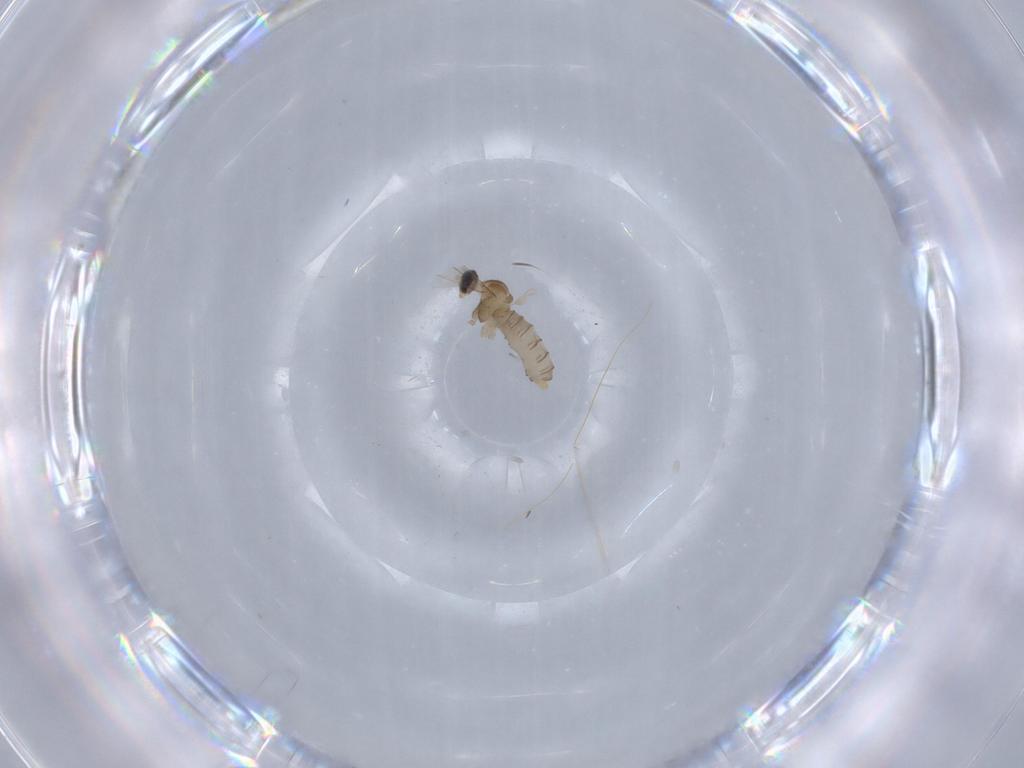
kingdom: Animalia
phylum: Arthropoda
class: Insecta
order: Diptera
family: Cecidomyiidae
